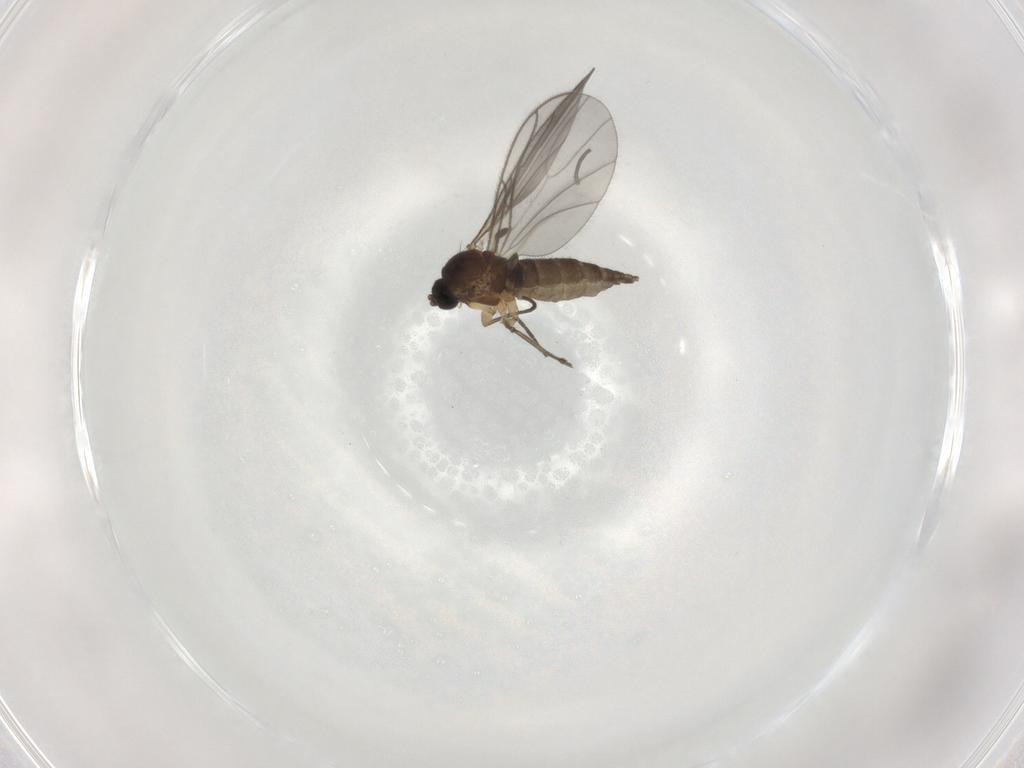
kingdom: Animalia
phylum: Arthropoda
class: Insecta
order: Diptera
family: Sciaridae
